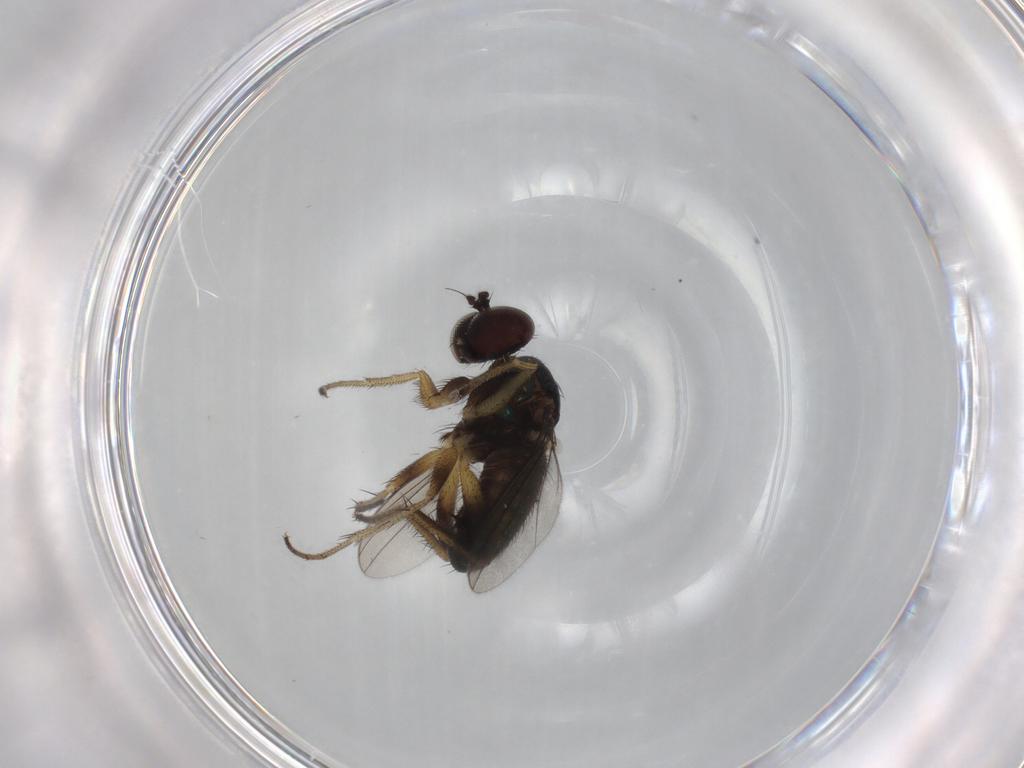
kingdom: Animalia
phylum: Arthropoda
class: Insecta
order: Diptera
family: Dolichopodidae
